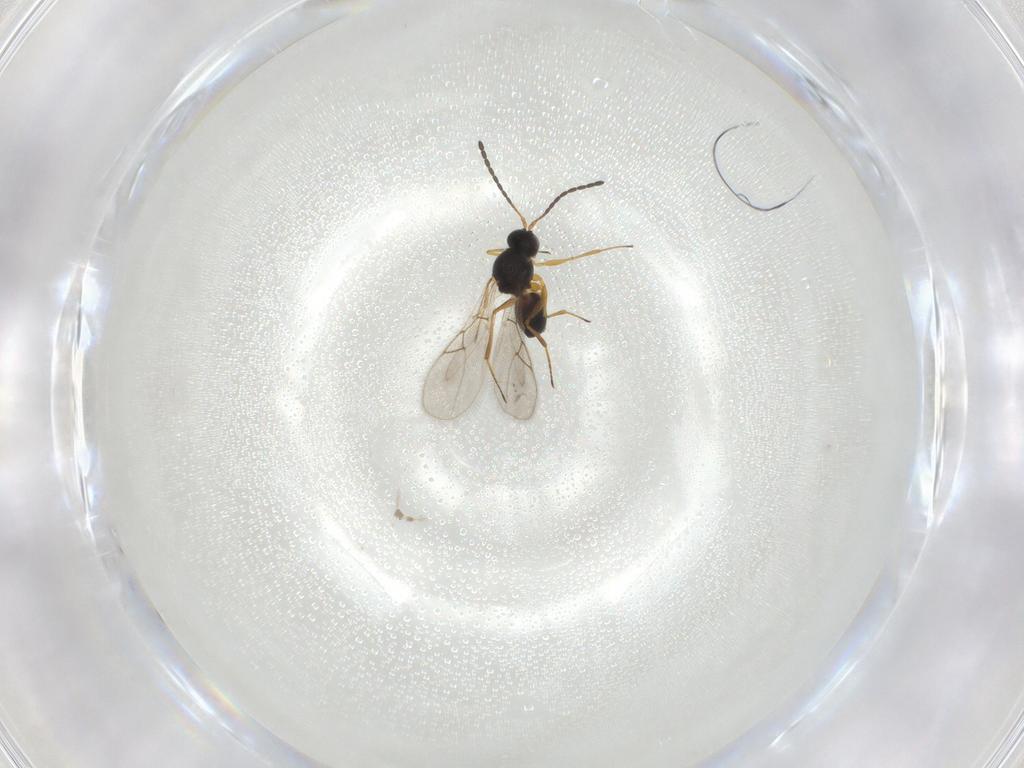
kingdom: Animalia
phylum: Arthropoda
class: Insecta
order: Hymenoptera
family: Figitidae
